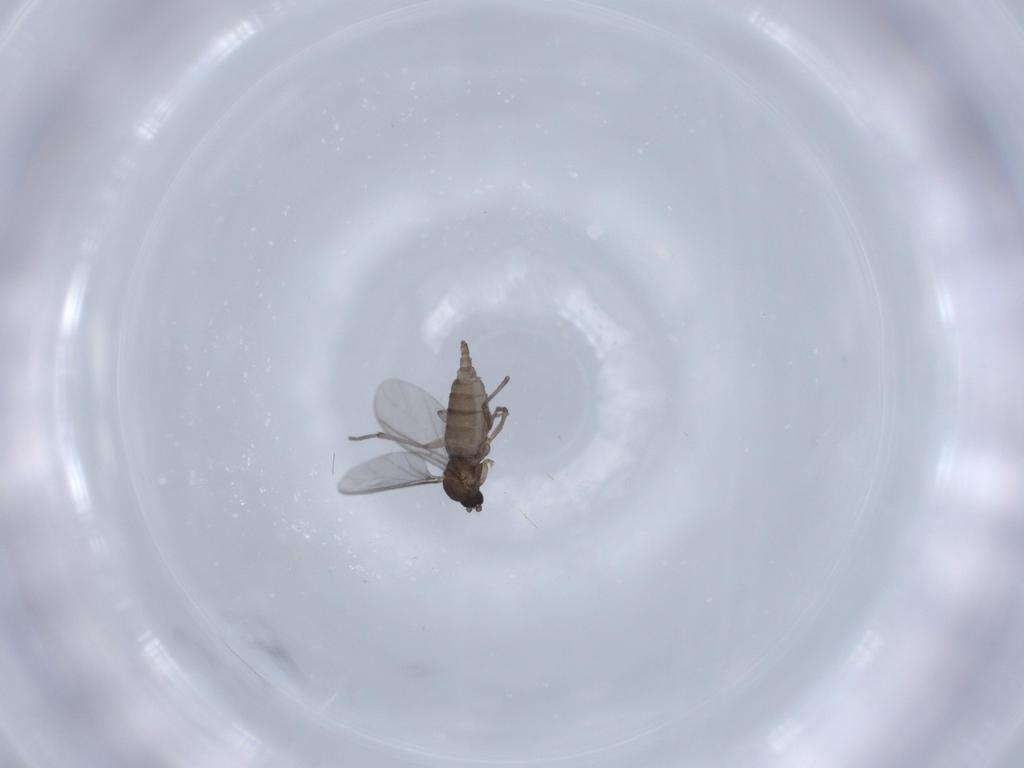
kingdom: Animalia
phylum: Arthropoda
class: Insecta
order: Diptera
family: Sciaridae
